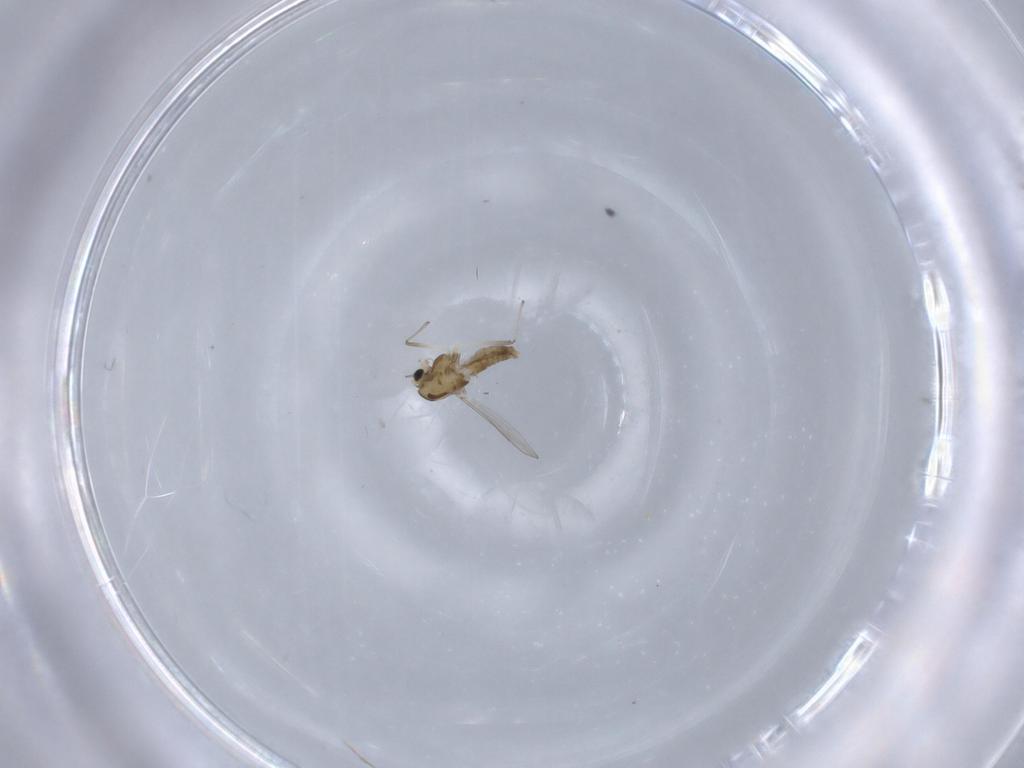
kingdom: Animalia
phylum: Arthropoda
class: Insecta
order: Diptera
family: Chironomidae
